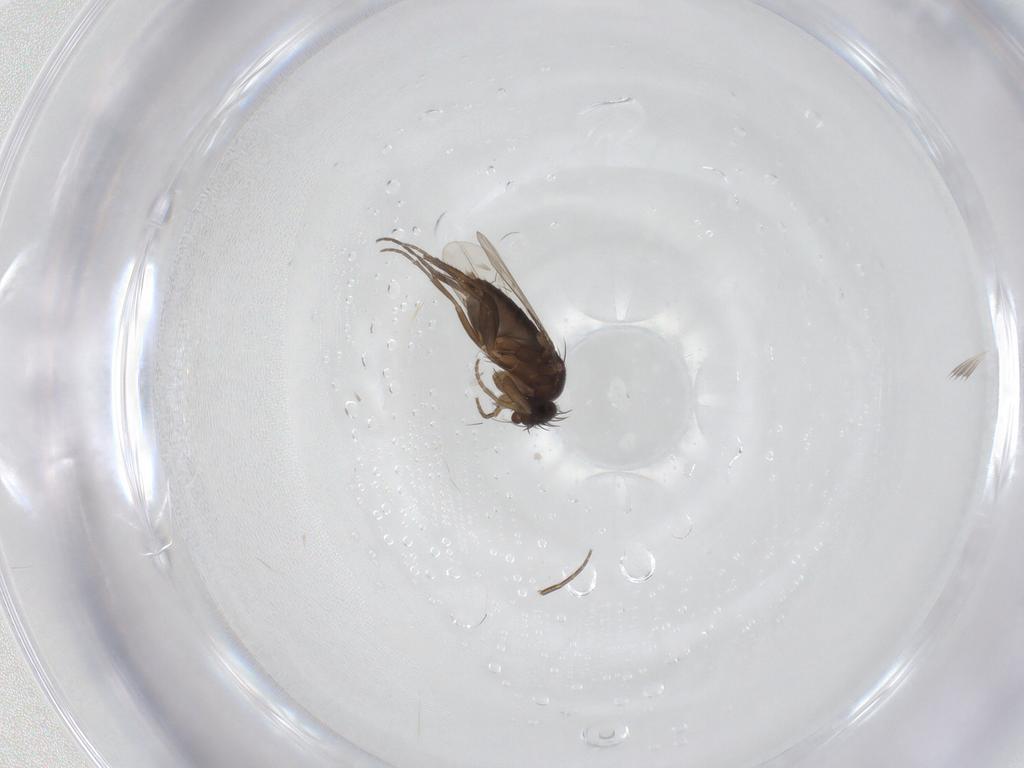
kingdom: Animalia
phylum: Arthropoda
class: Insecta
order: Diptera
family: Phoridae
